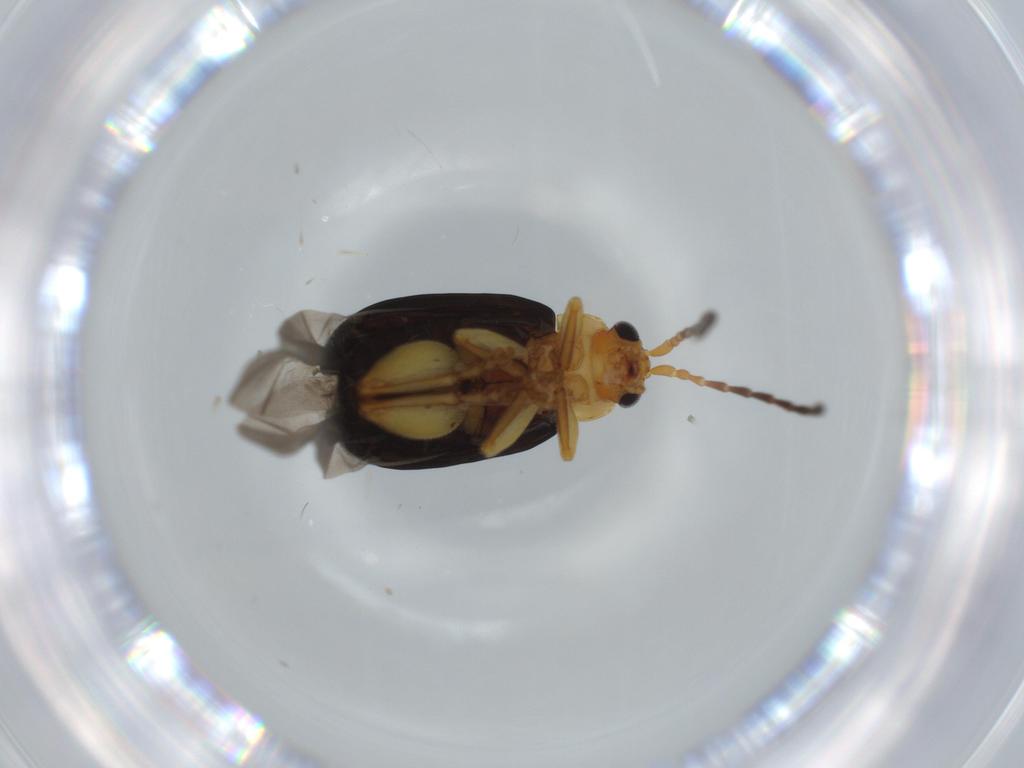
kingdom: Animalia
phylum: Arthropoda
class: Insecta
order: Coleoptera
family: Staphylinidae
